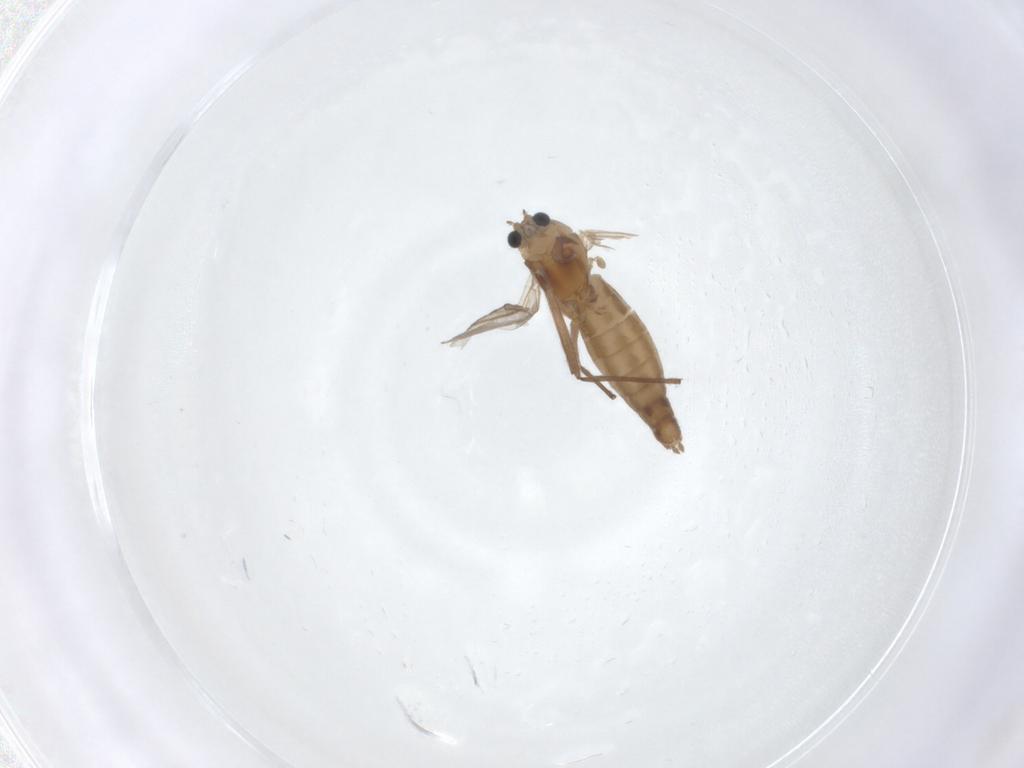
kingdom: Animalia
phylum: Arthropoda
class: Insecta
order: Diptera
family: Chironomidae
